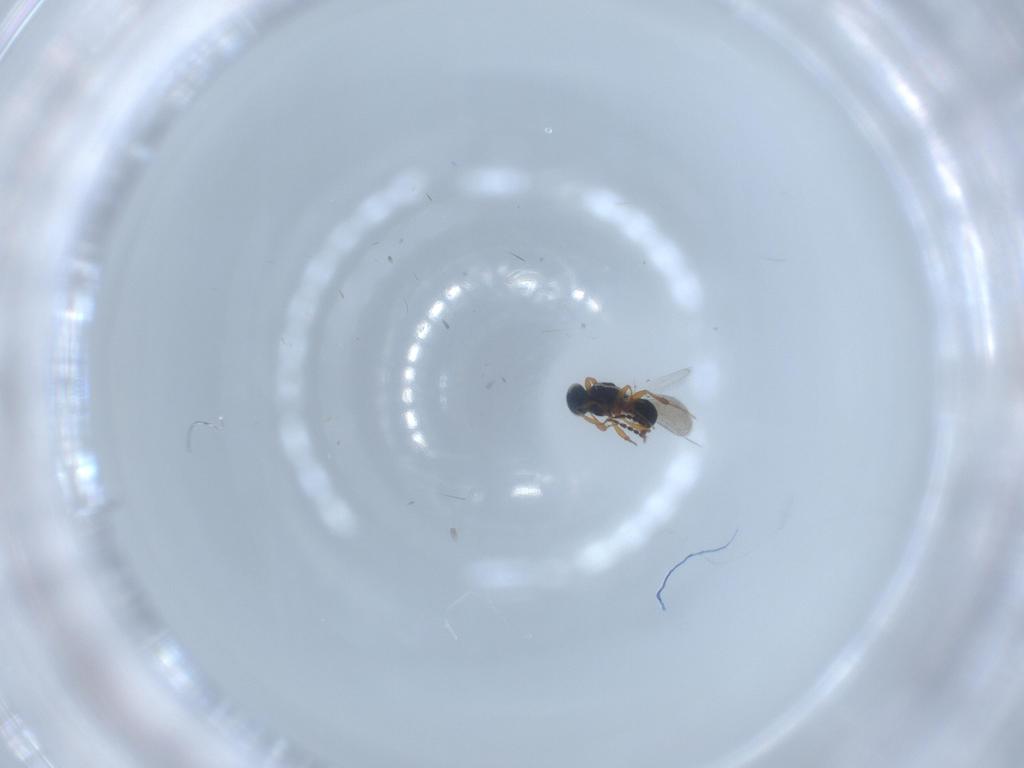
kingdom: Animalia
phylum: Arthropoda
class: Insecta
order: Hymenoptera
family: Platygastridae
